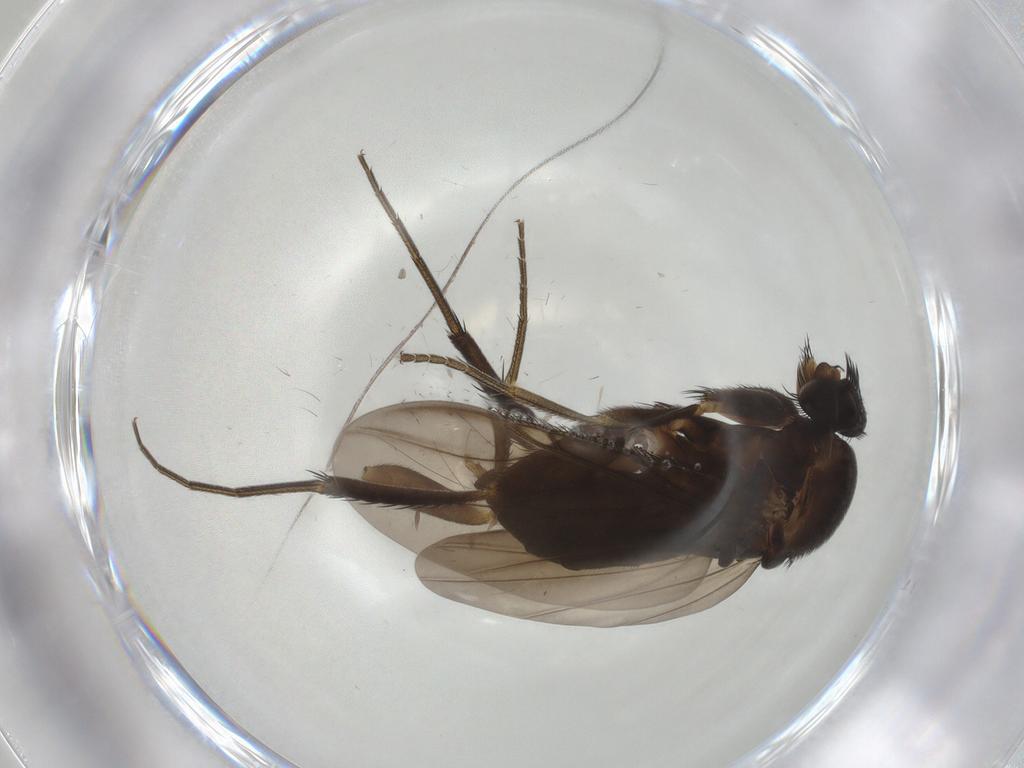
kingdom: Animalia
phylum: Arthropoda
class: Insecta
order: Diptera
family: Phoridae
